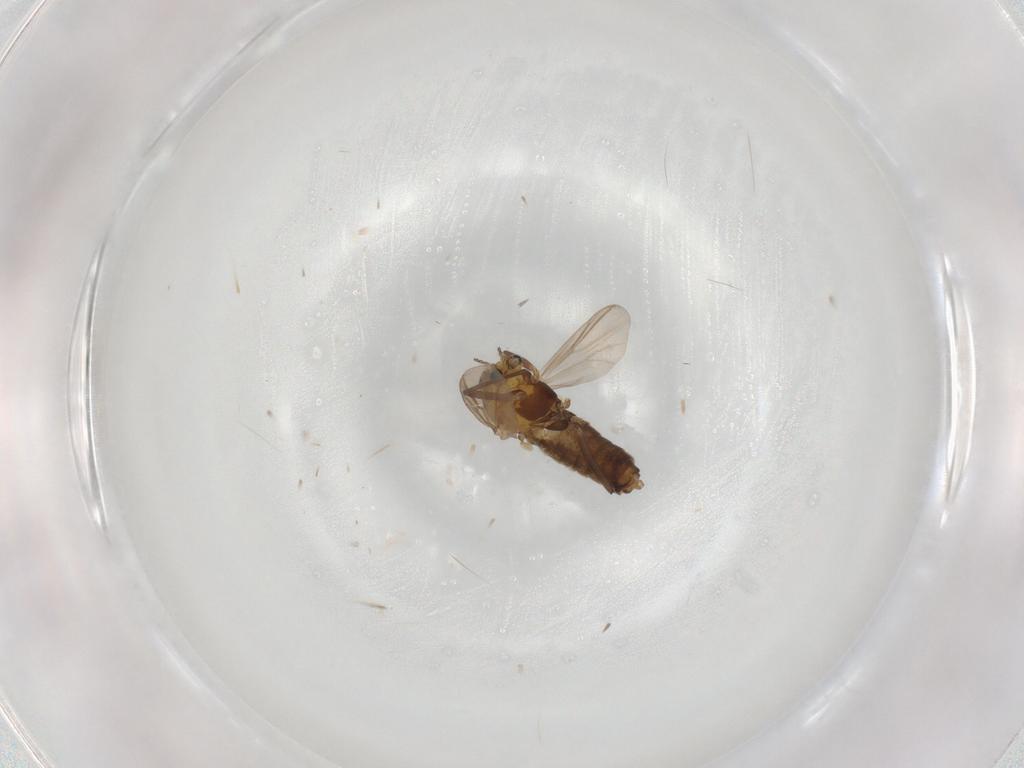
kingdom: Animalia
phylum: Arthropoda
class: Insecta
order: Diptera
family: Chironomidae
